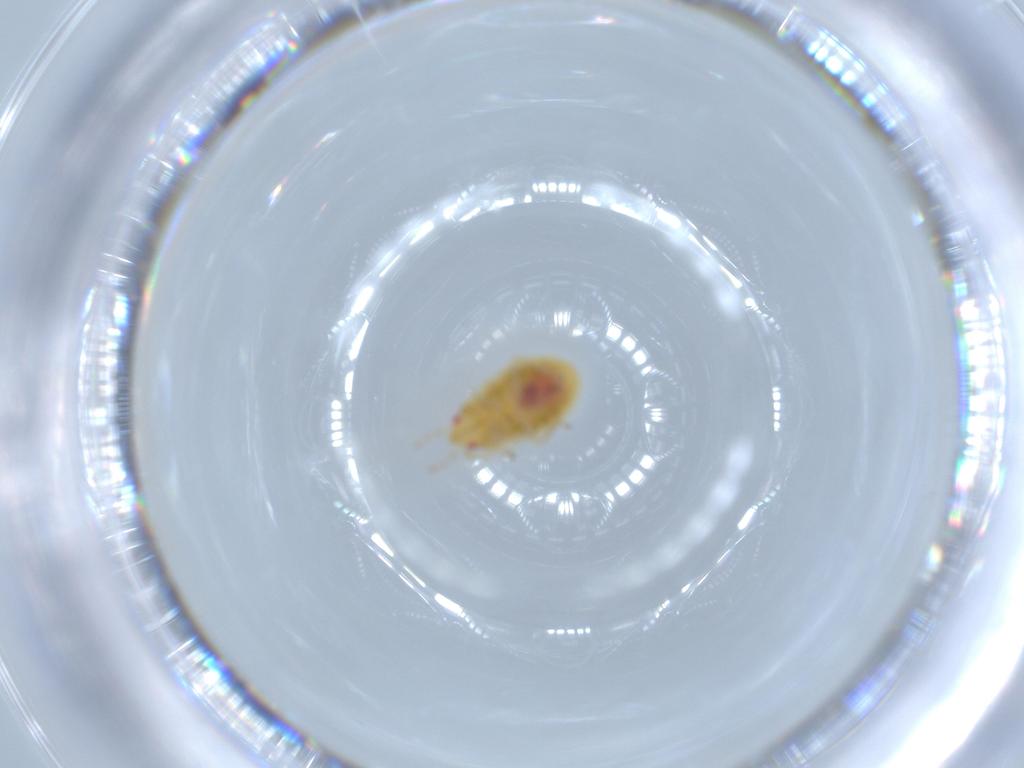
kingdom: Animalia
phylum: Arthropoda
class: Insecta
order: Hemiptera
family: Anthocoridae
